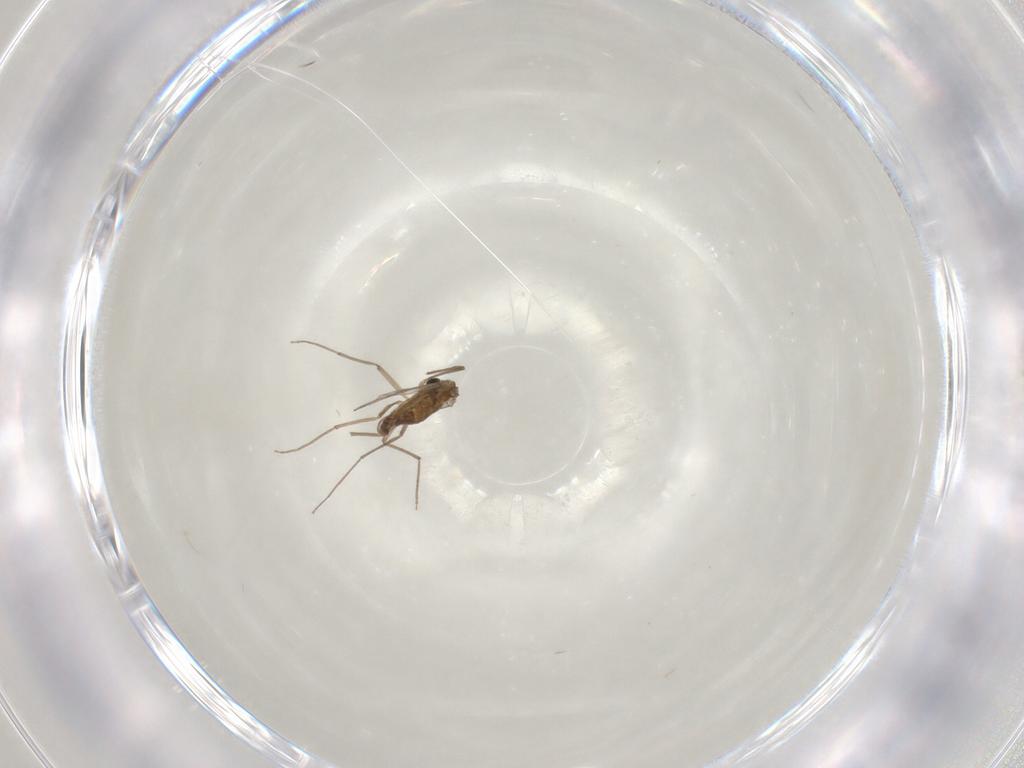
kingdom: Animalia
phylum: Arthropoda
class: Insecta
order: Diptera
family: Chironomidae
